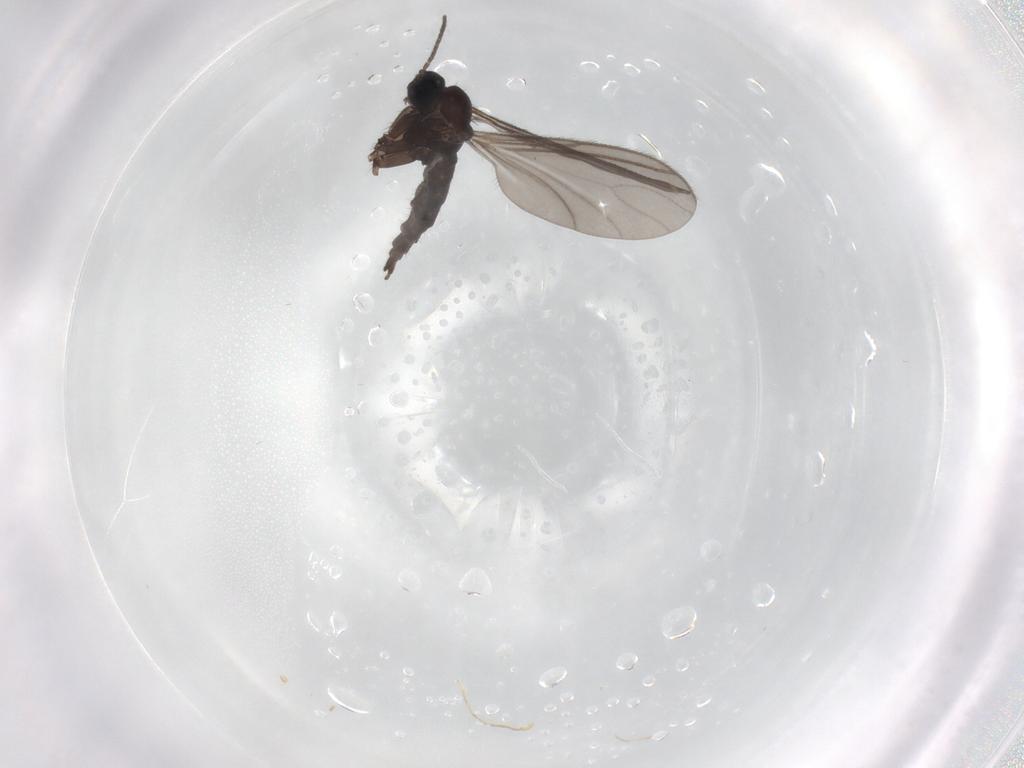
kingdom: Animalia
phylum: Arthropoda
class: Insecta
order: Diptera
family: Sciaridae
